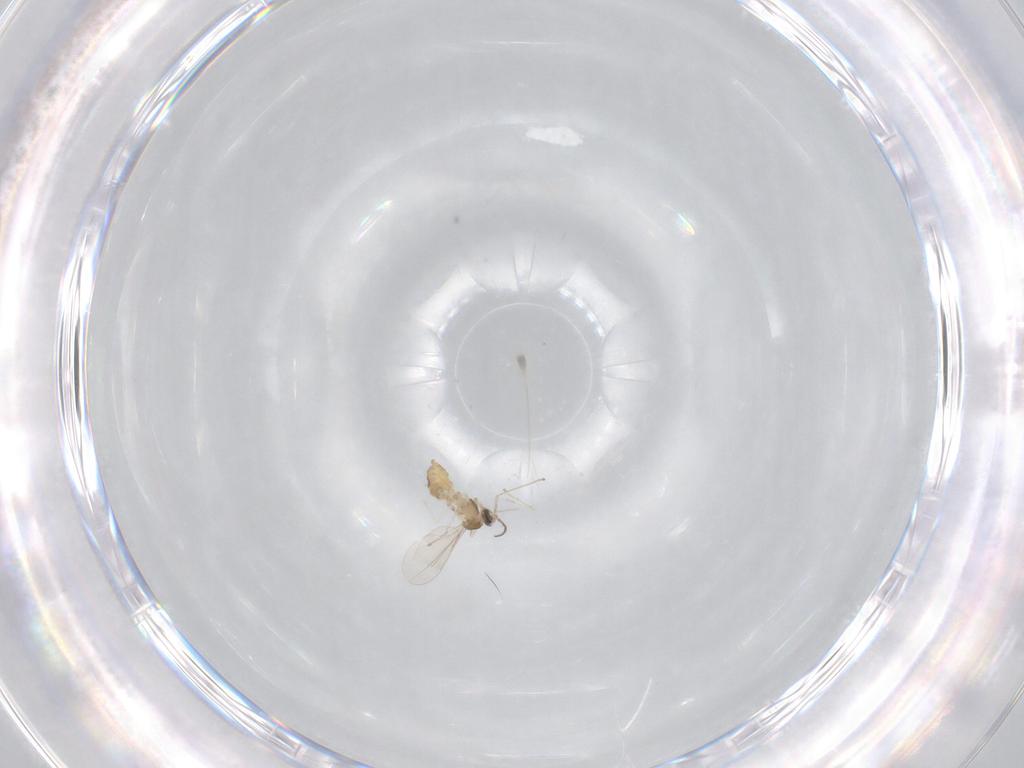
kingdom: Animalia
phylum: Arthropoda
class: Insecta
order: Diptera
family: Cecidomyiidae
